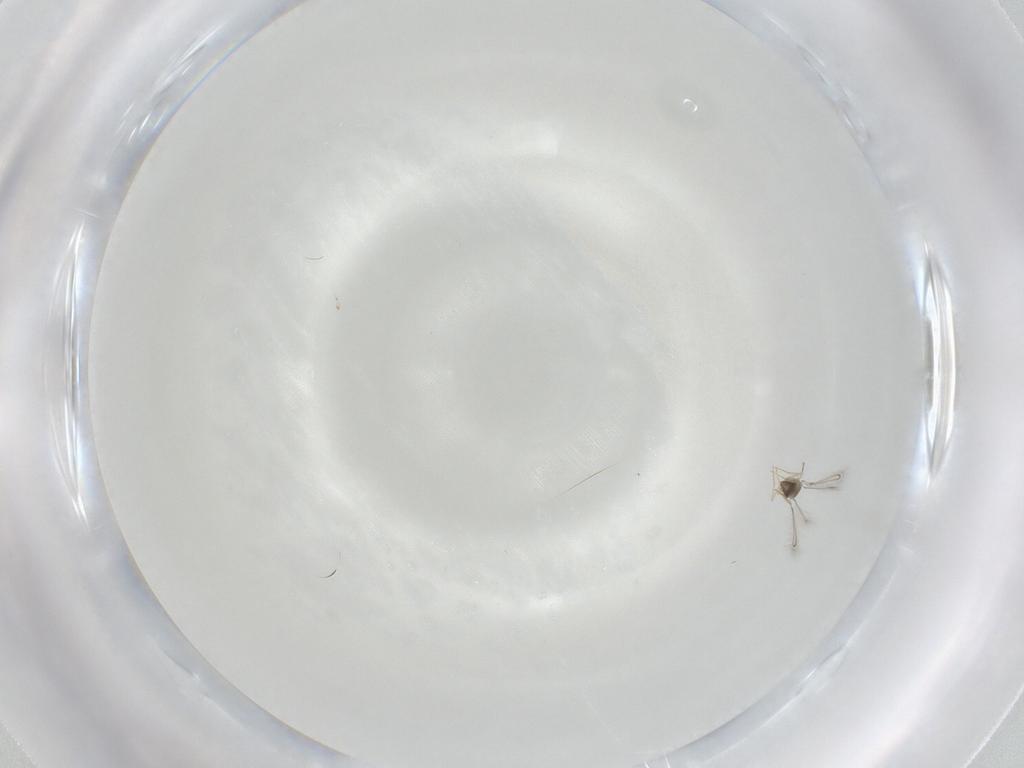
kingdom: Animalia
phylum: Arthropoda
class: Insecta
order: Hymenoptera
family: Mymaridae
